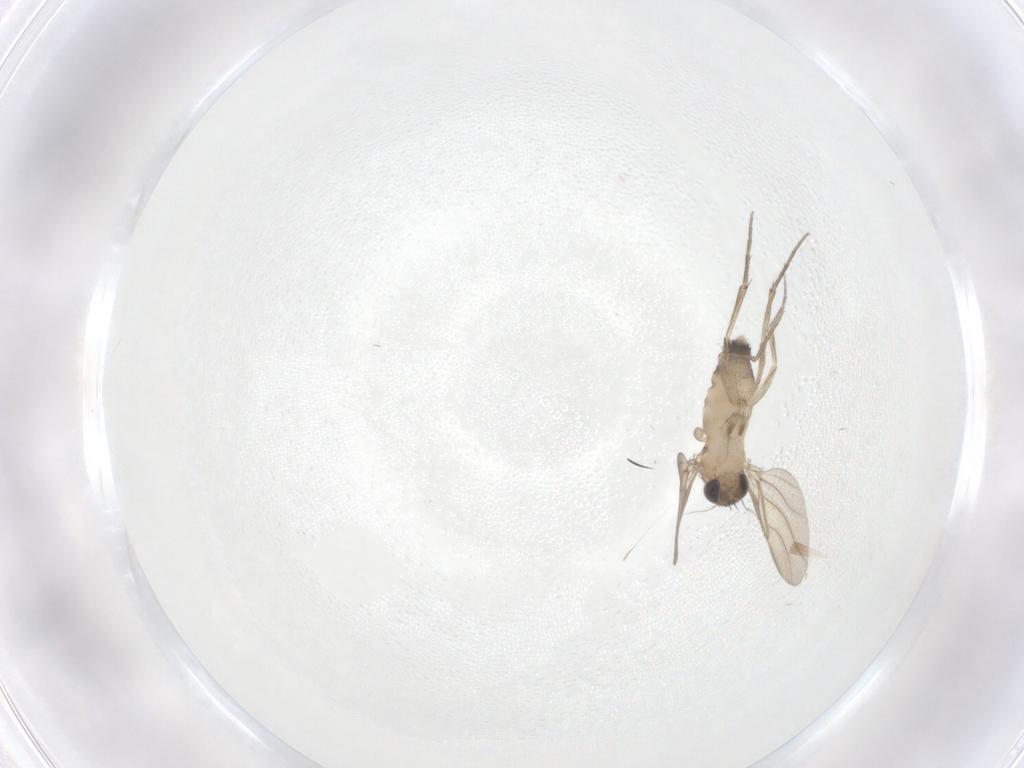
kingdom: Animalia
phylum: Arthropoda
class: Insecta
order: Diptera
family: Phoridae
